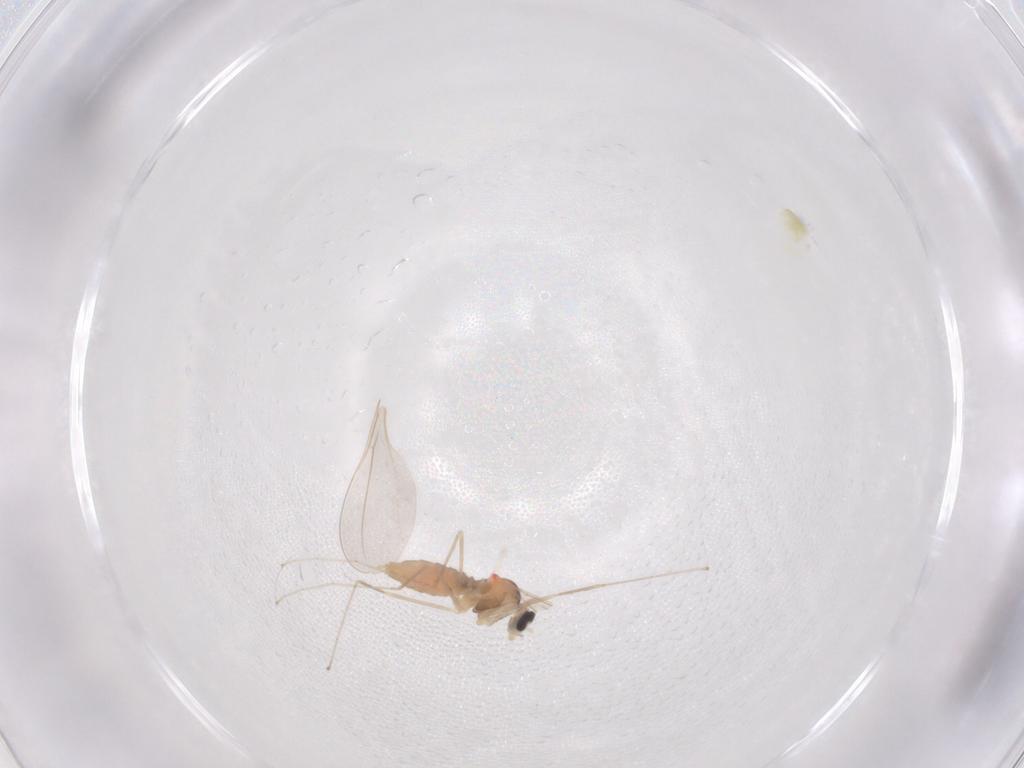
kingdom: Animalia
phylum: Arthropoda
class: Insecta
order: Diptera
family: Cecidomyiidae
